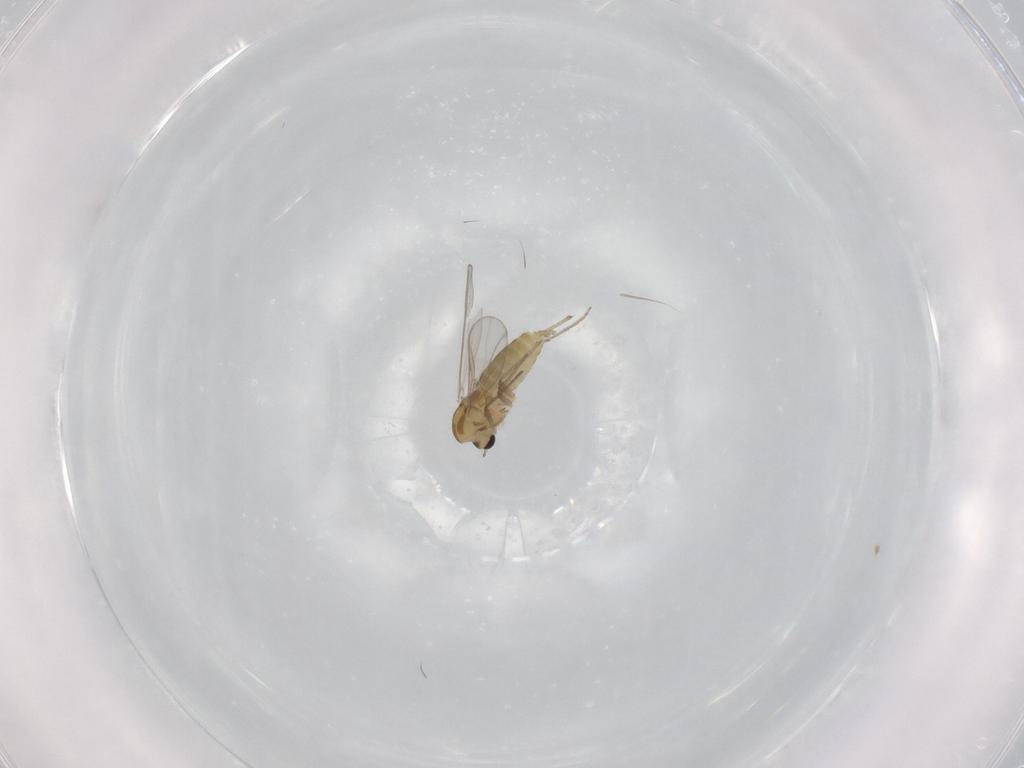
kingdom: Animalia
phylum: Arthropoda
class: Insecta
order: Diptera
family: Chironomidae
